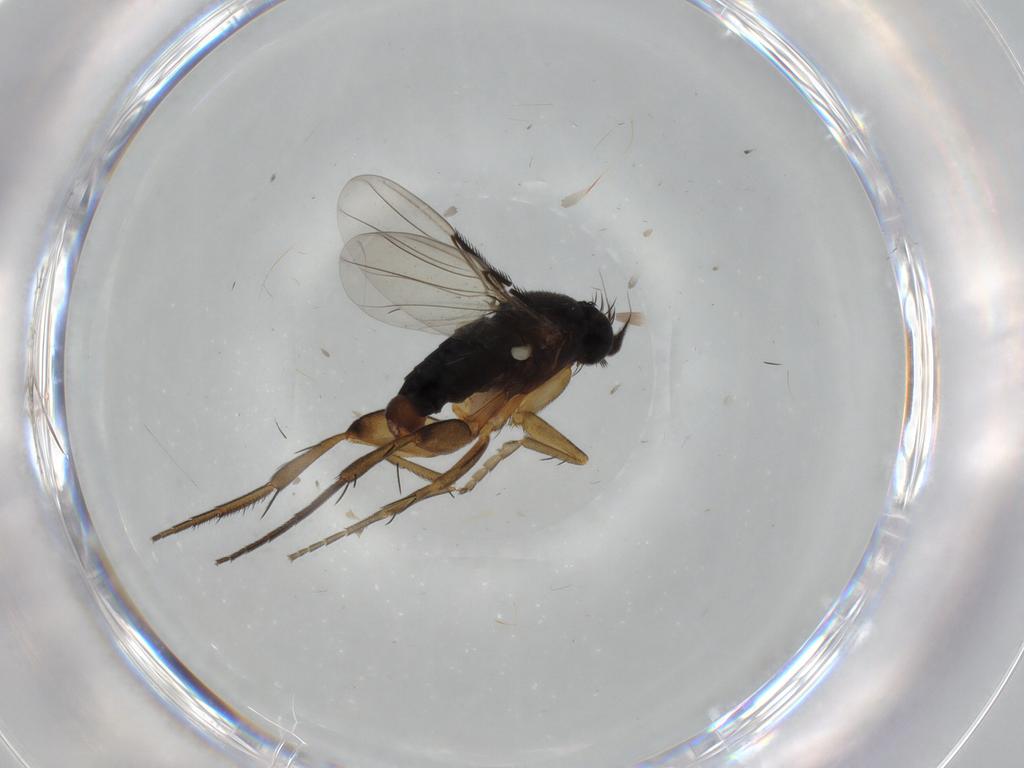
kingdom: Animalia
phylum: Arthropoda
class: Insecta
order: Diptera
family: Phoridae
